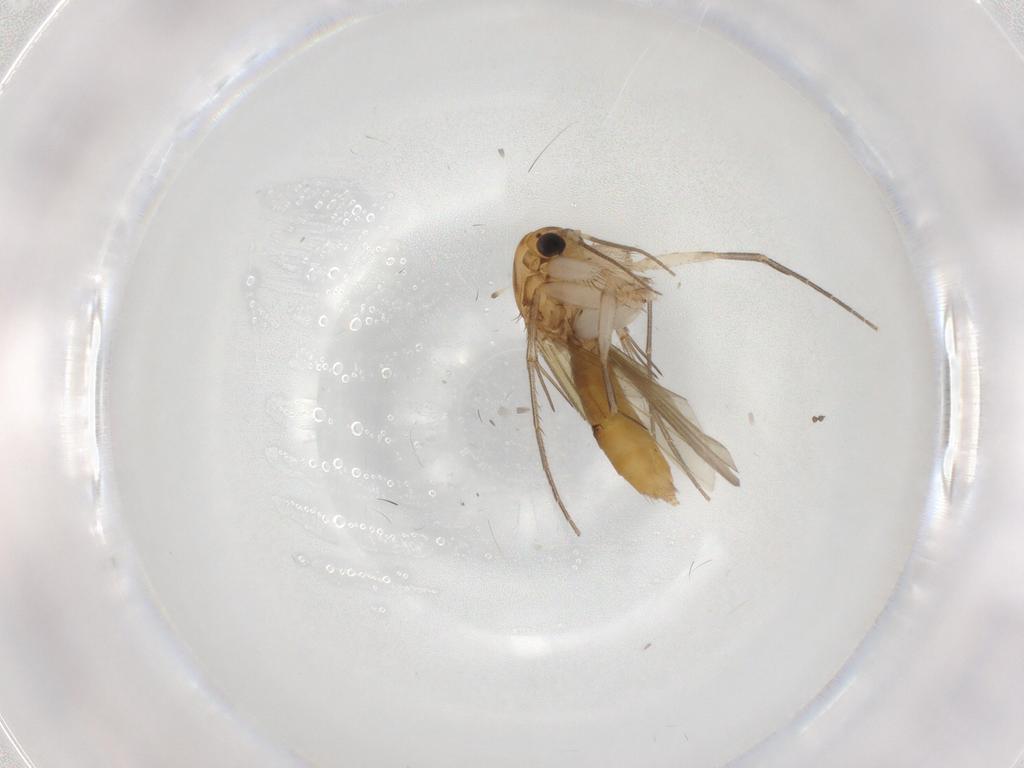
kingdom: Animalia
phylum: Arthropoda
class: Insecta
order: Diptera
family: Mycetophilidae
